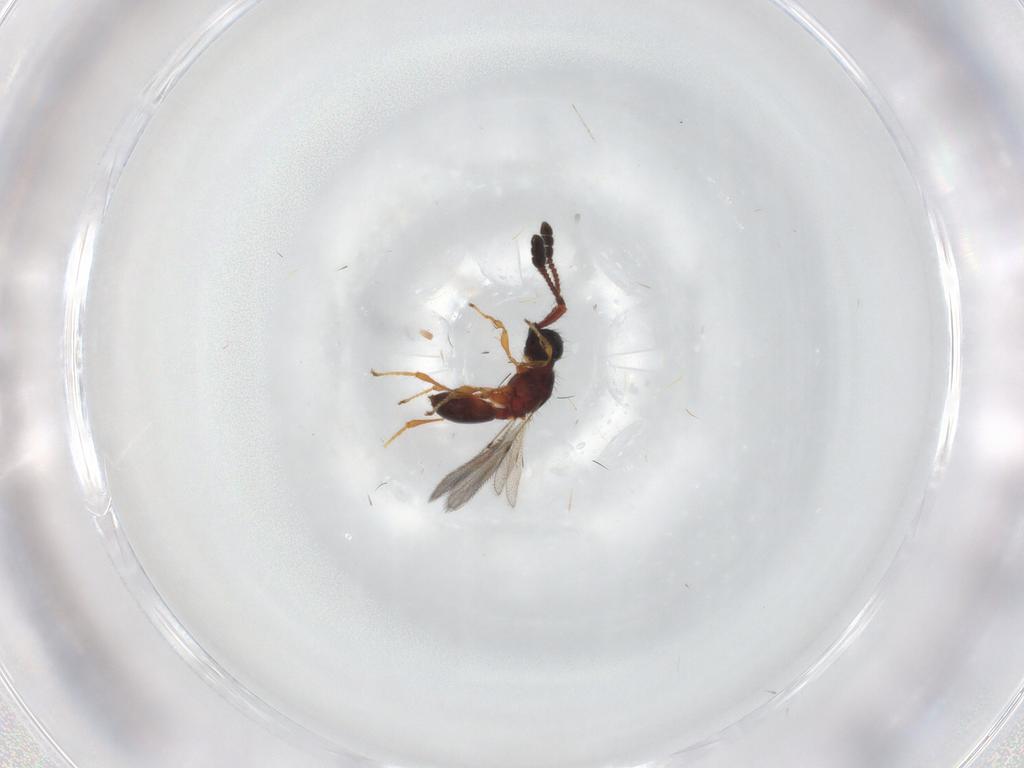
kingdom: Animalia
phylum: Arthropoda
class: Insecta
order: Hymenoptera
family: Diapriidae
